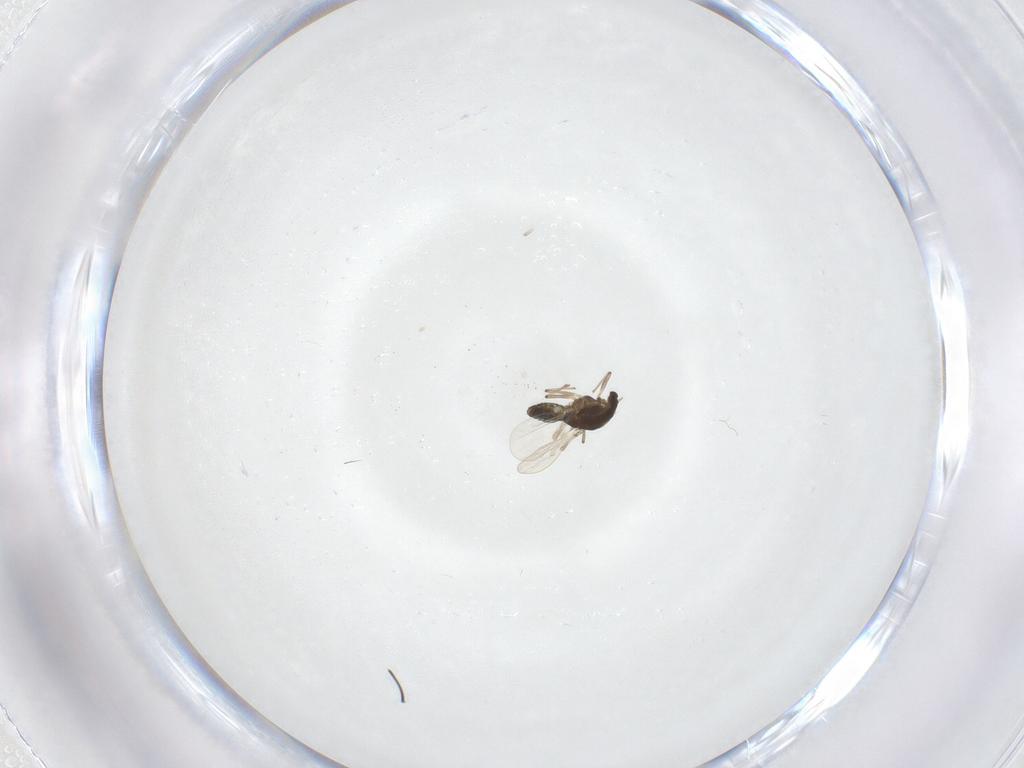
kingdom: Animalia
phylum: Arthropoda
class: Insecta
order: Diptera
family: Chironomidae
